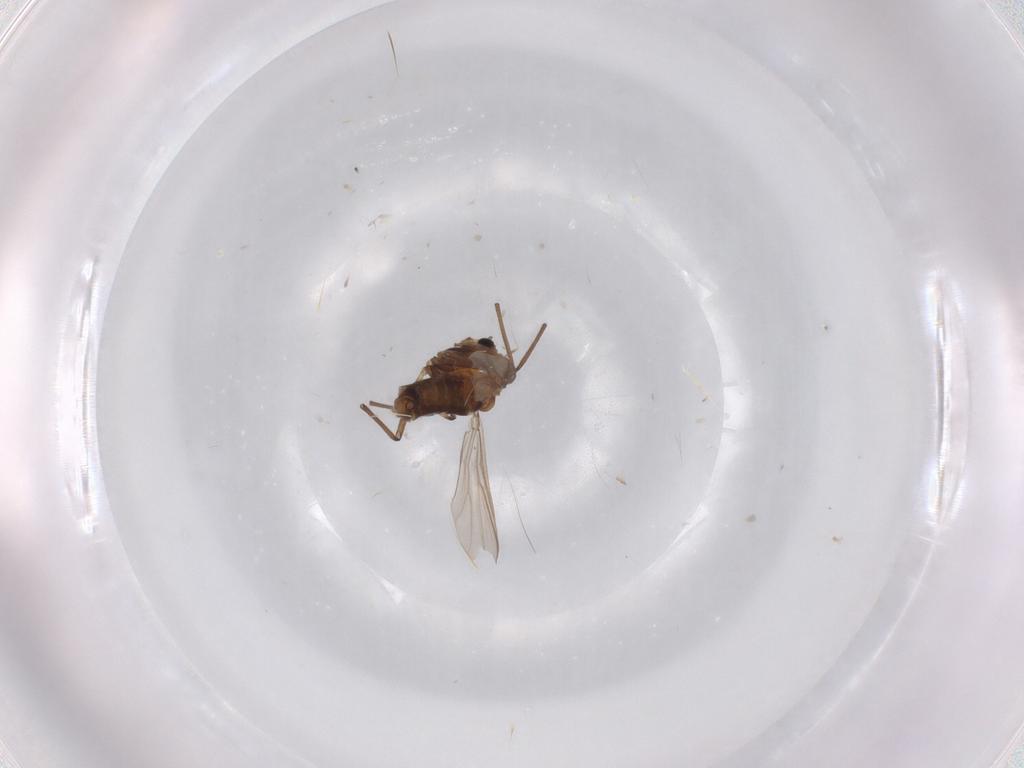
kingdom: Animalia
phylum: Arthropoda
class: Insecta
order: Diptera
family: Chironomidae
